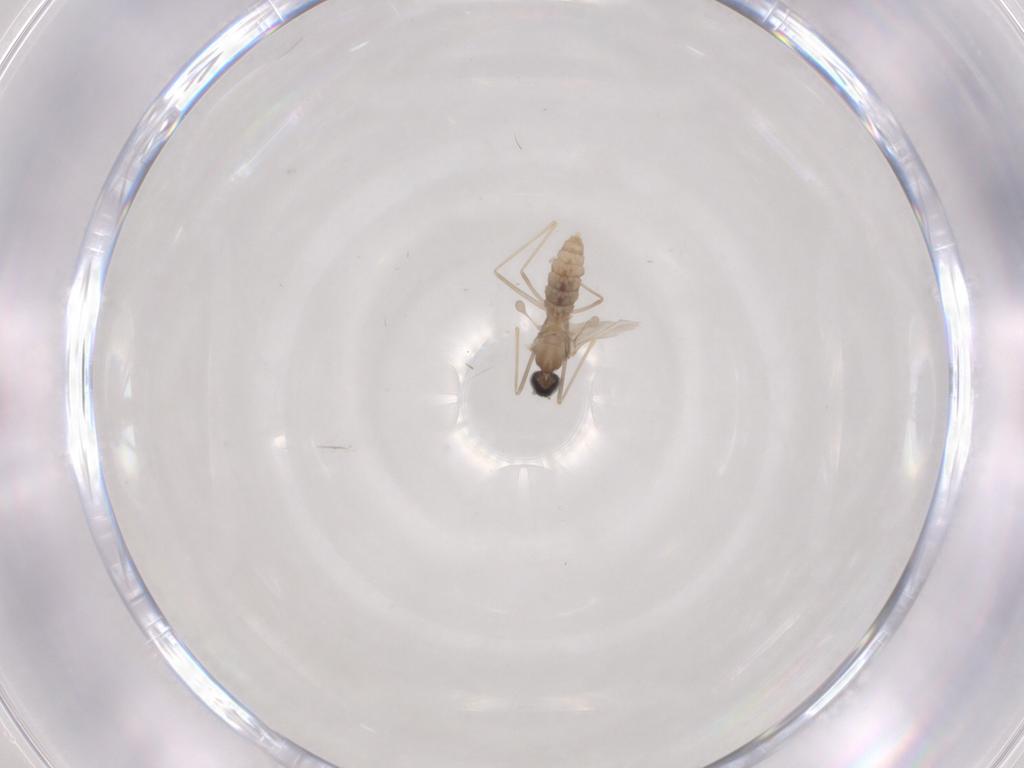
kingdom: Animalia
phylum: Arthropoda
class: Insecta
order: Diptera
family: Cecidomyiidae
